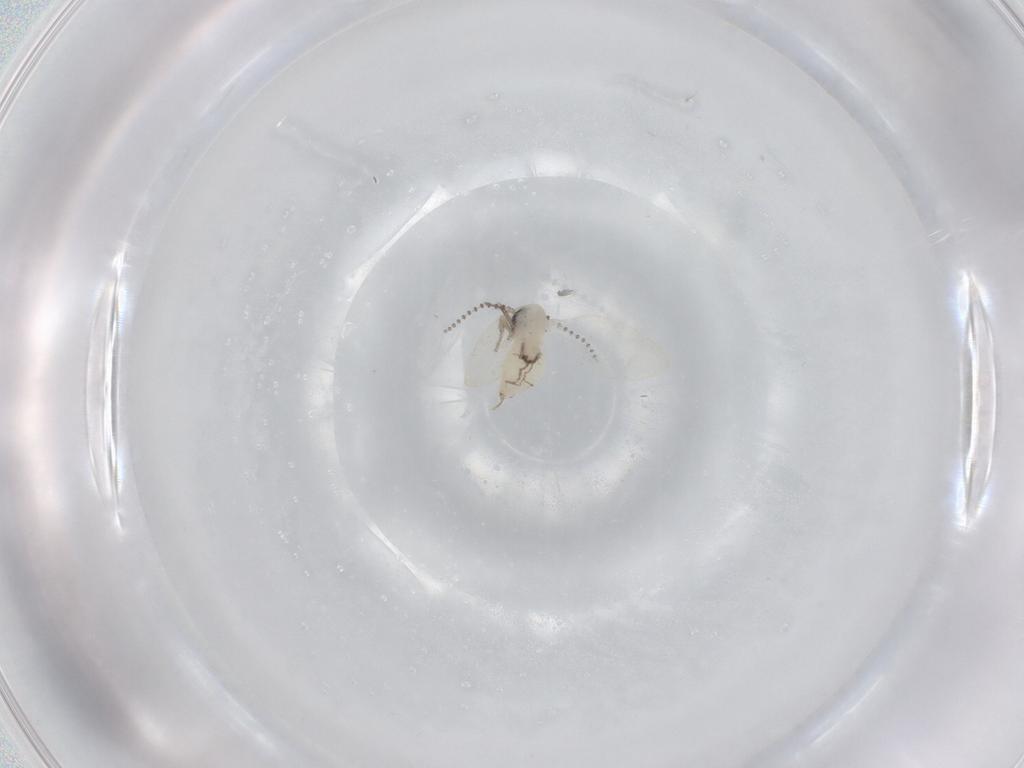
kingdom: Animalia
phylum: Arthropoda
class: Insecta
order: Diptera
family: Psychodidae
